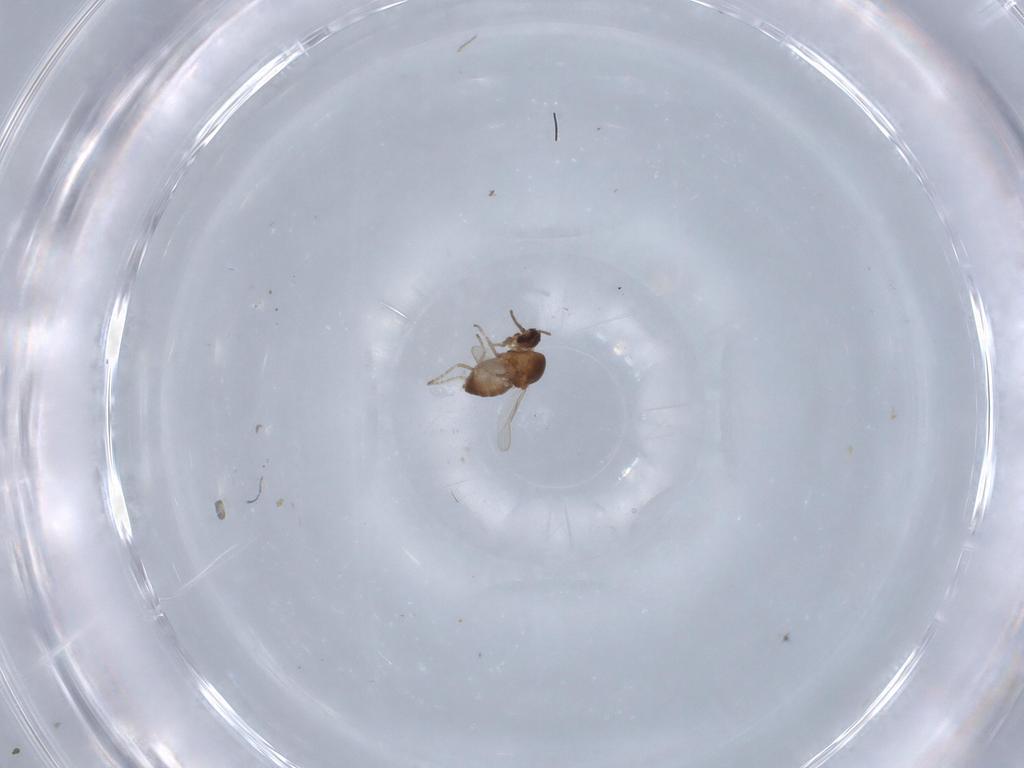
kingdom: Animalia
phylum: Arthropoda
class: Insecta
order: Diptera
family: Ceratopogonidae
